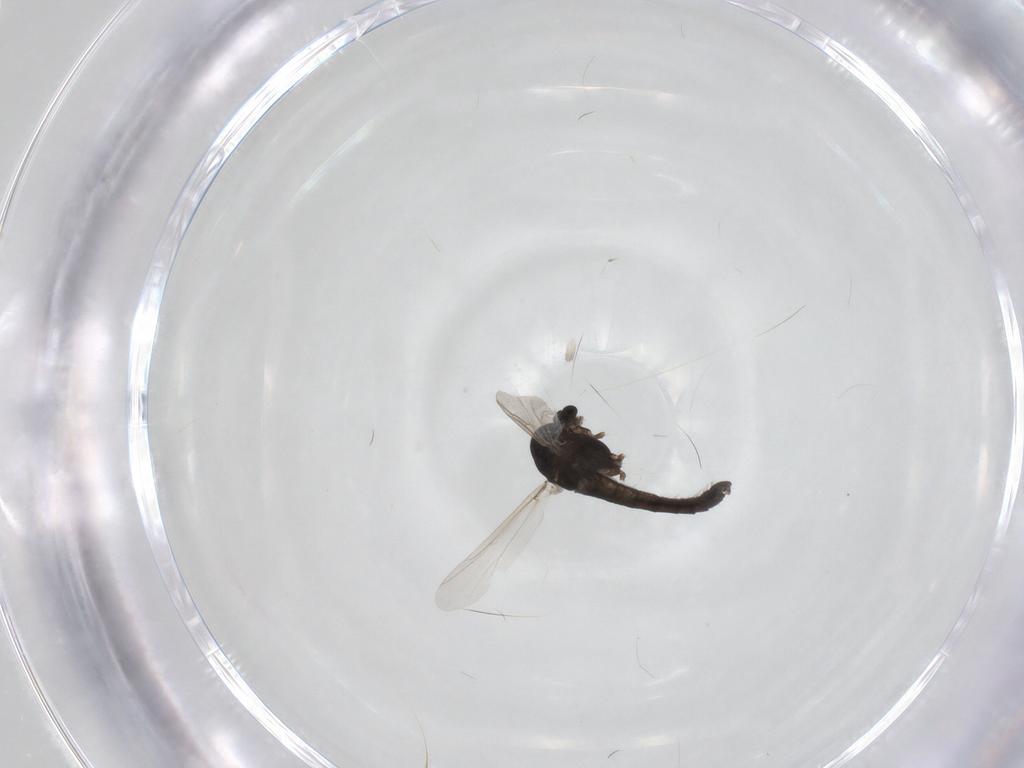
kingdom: Animalia
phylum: Arthropoda
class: Insecta
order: Diptera
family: Chironomidae
